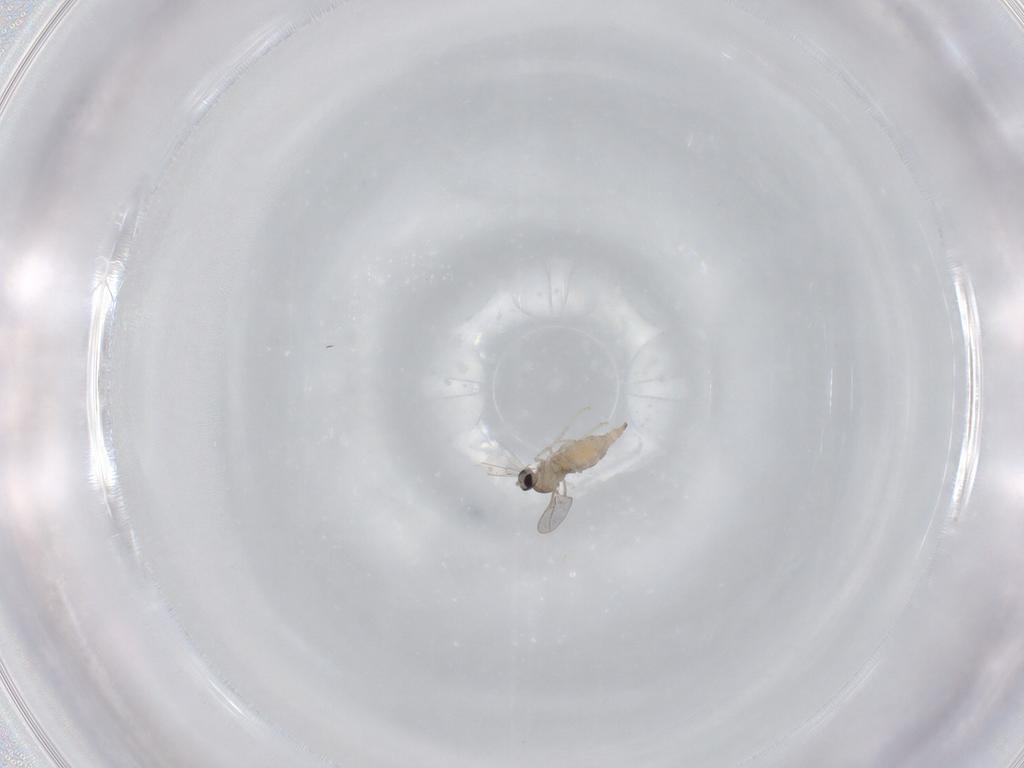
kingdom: Animalia
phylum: Arthropoda
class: Insecta
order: Diptera
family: Cecidomyiidae
